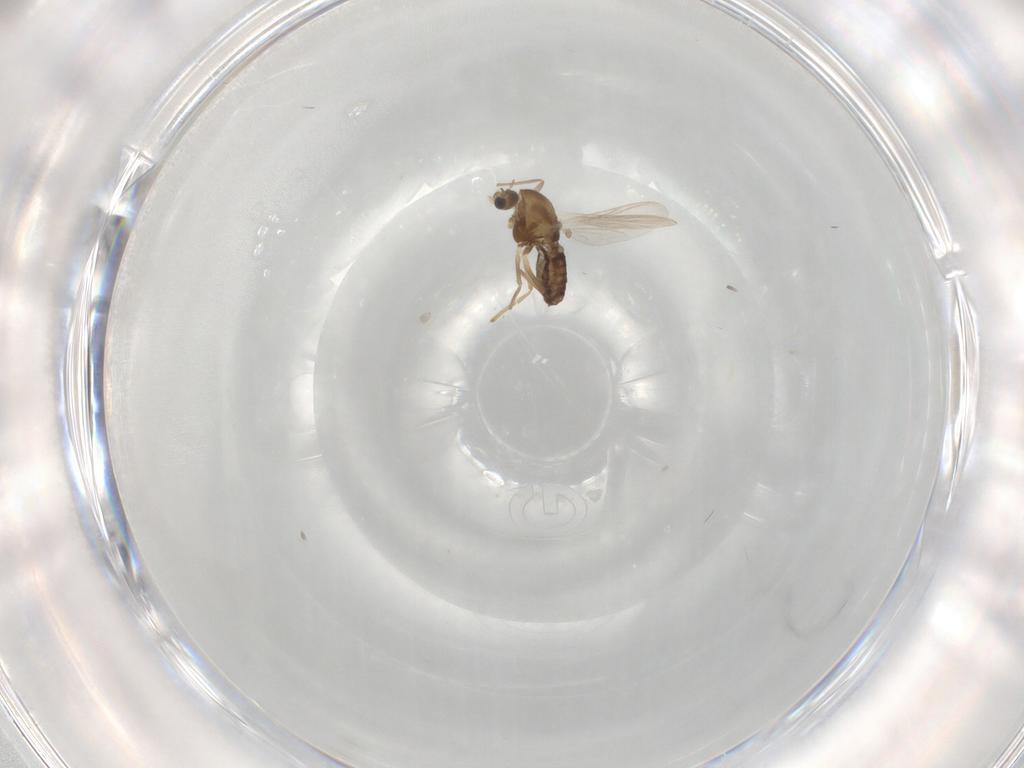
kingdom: Animalia
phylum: Arthropoda
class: Insecta
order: Diptera
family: Chironomidae
